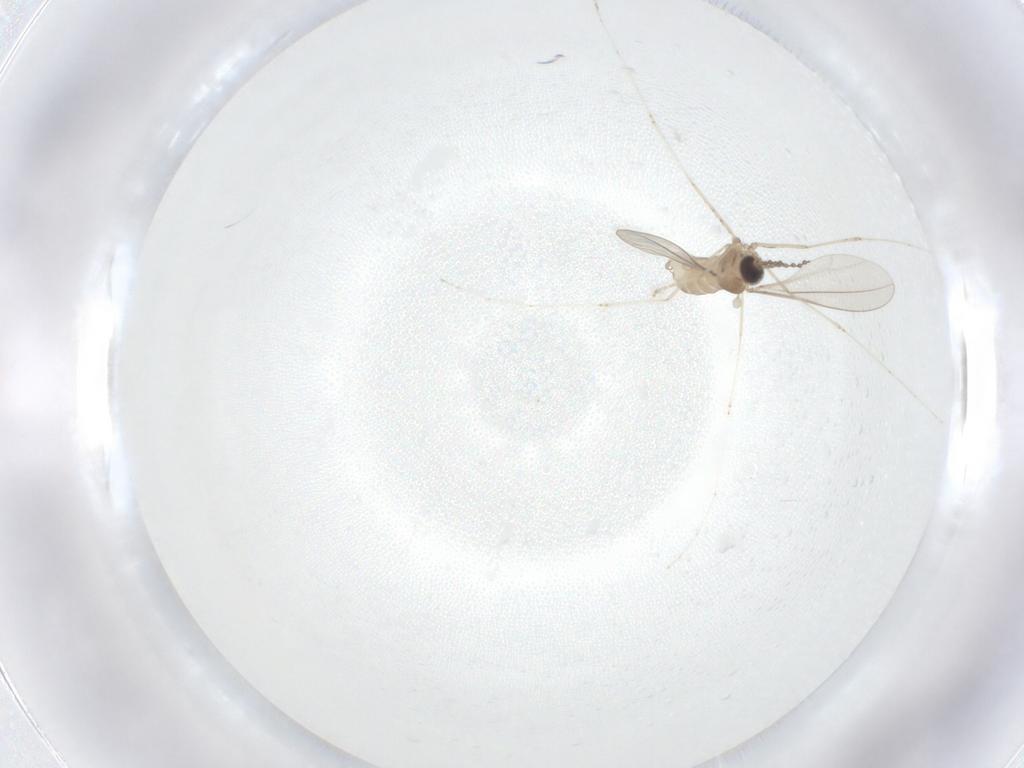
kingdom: Animalia
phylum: Arthropoda
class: Insecta
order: Diptera
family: Cecidomyiidae
